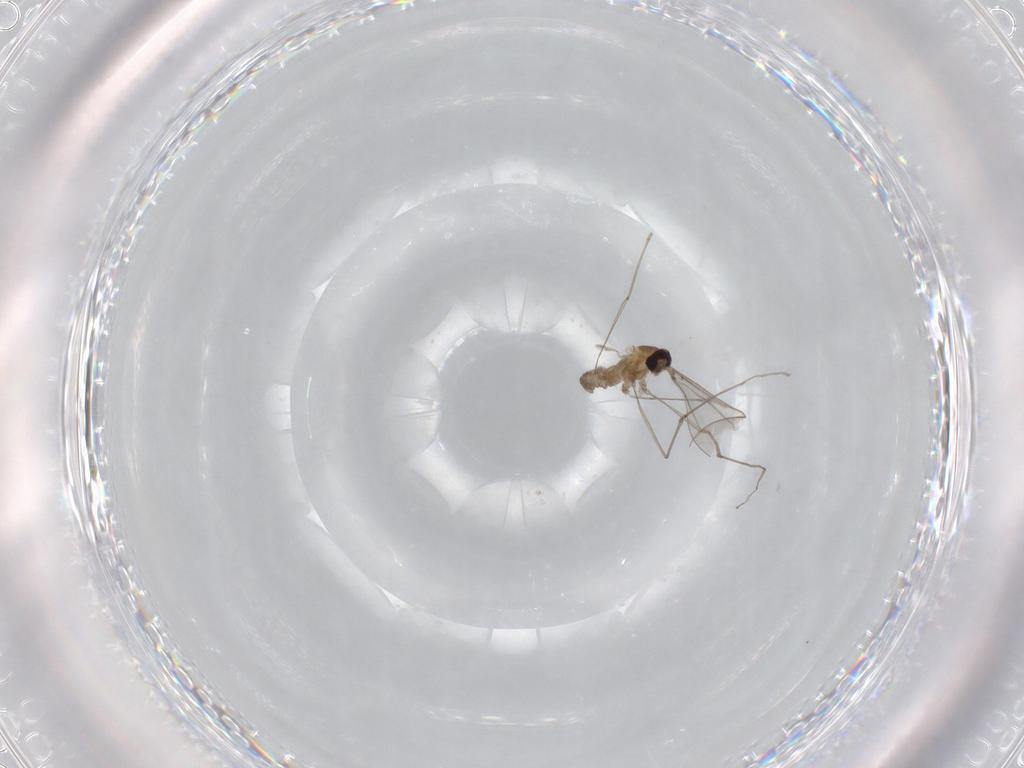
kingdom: Animalia
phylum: Arthropoda
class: Insecta
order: Diptera
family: Cecidomyiidae
